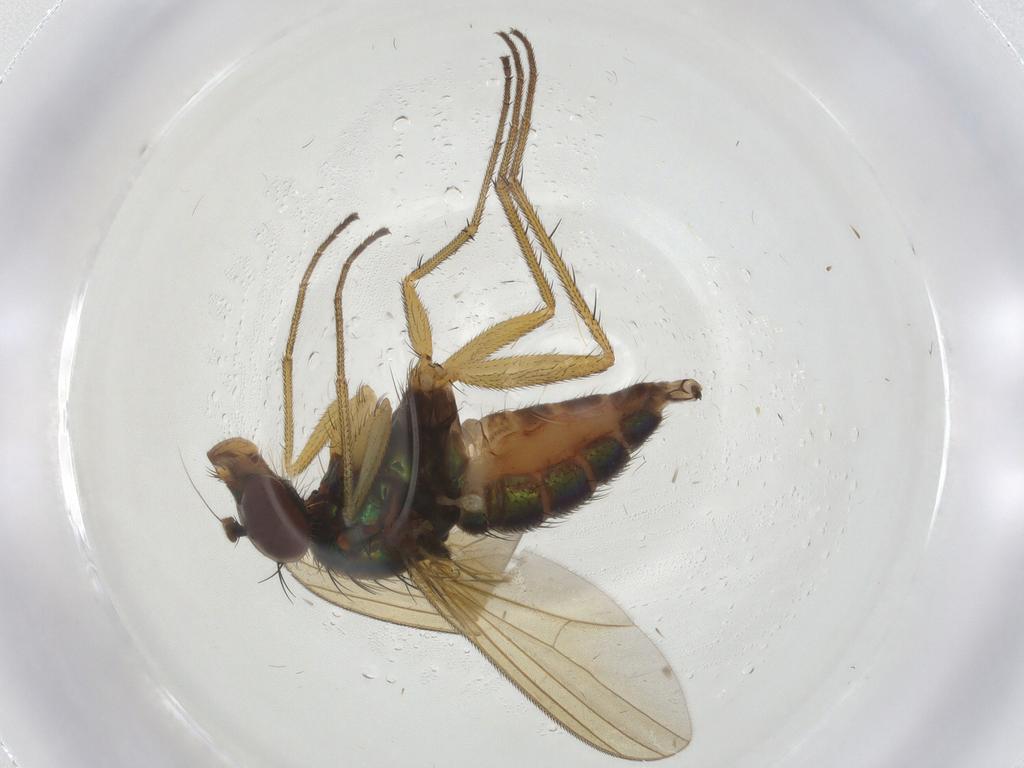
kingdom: Animalia
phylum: Arthropoda
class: Insecta
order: Diptera
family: Dolichopodidae
